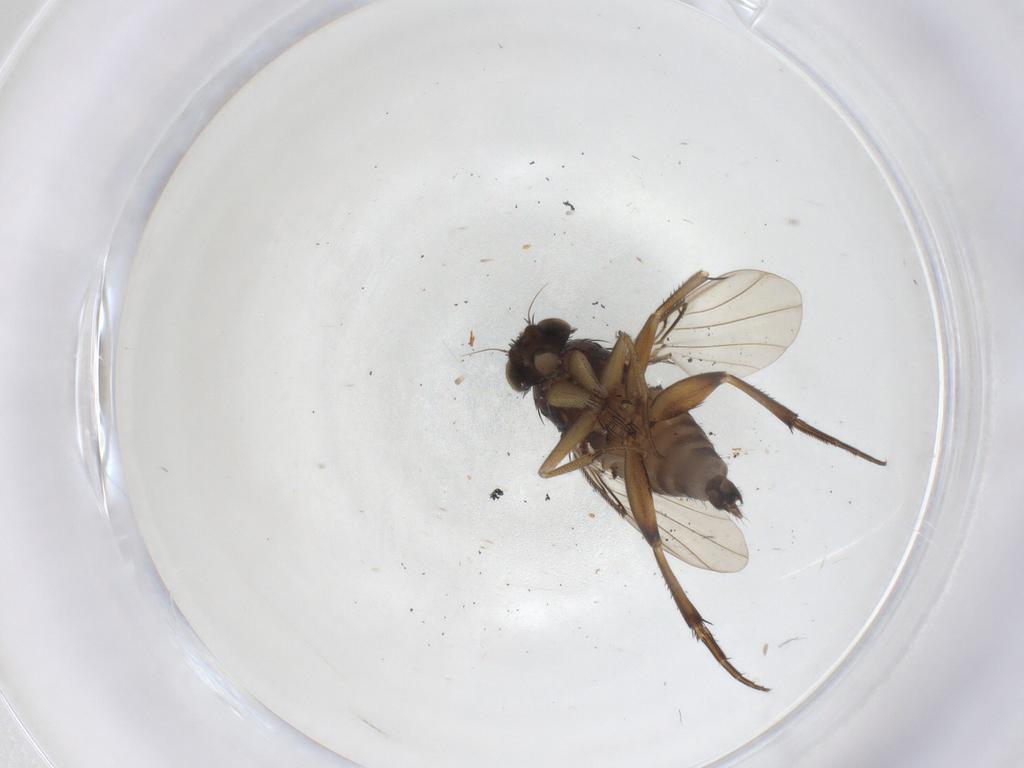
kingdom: Animalia
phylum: Arthropoda
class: Insecta
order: Diptera
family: Phoridae
